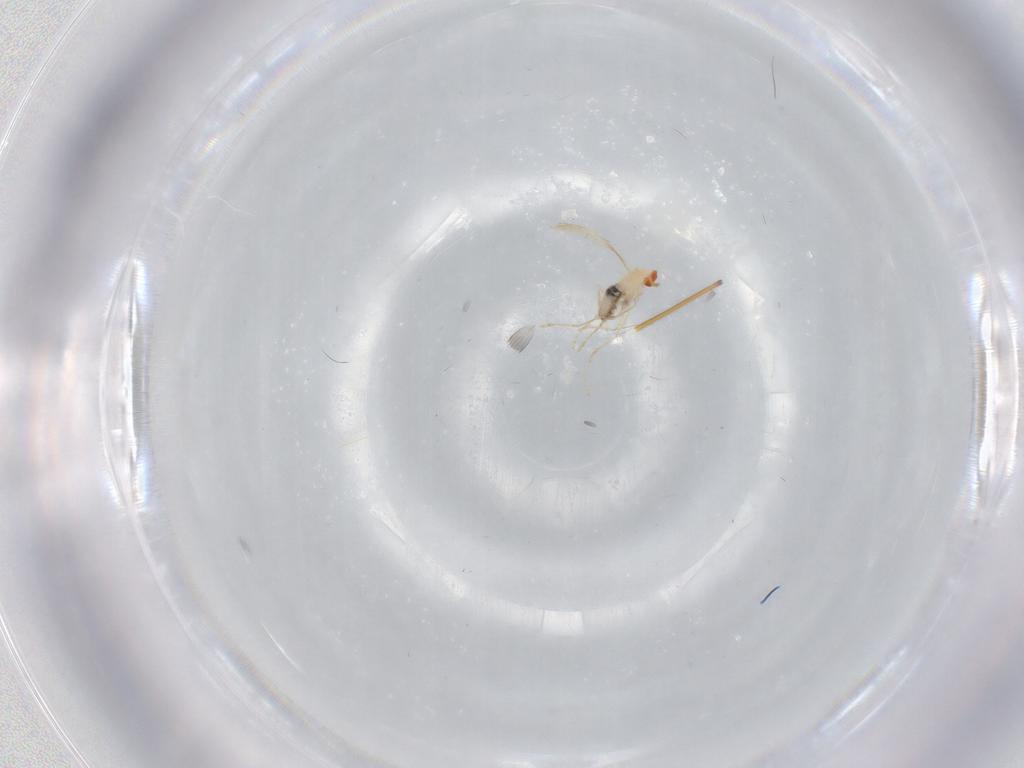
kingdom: Animalia
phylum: Arthropoda
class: Insecta
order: Diptera
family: Cecidomyiidae
